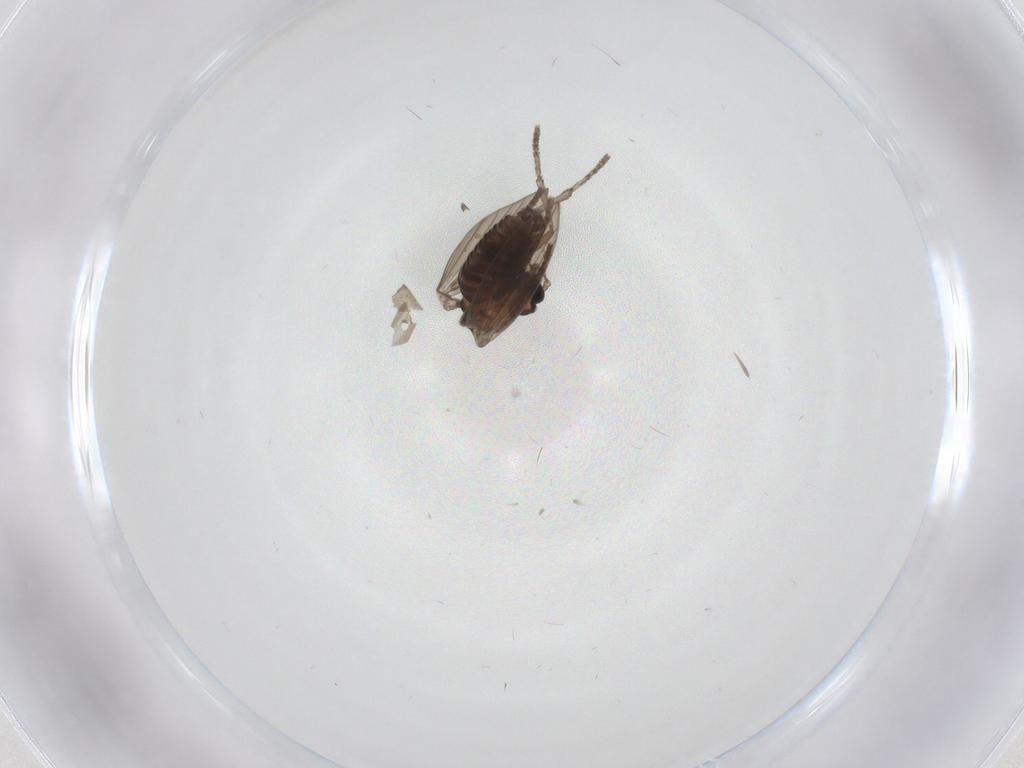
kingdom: Animalia
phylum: Arthropoda
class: Insecta
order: Diptera
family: Psychodidae
